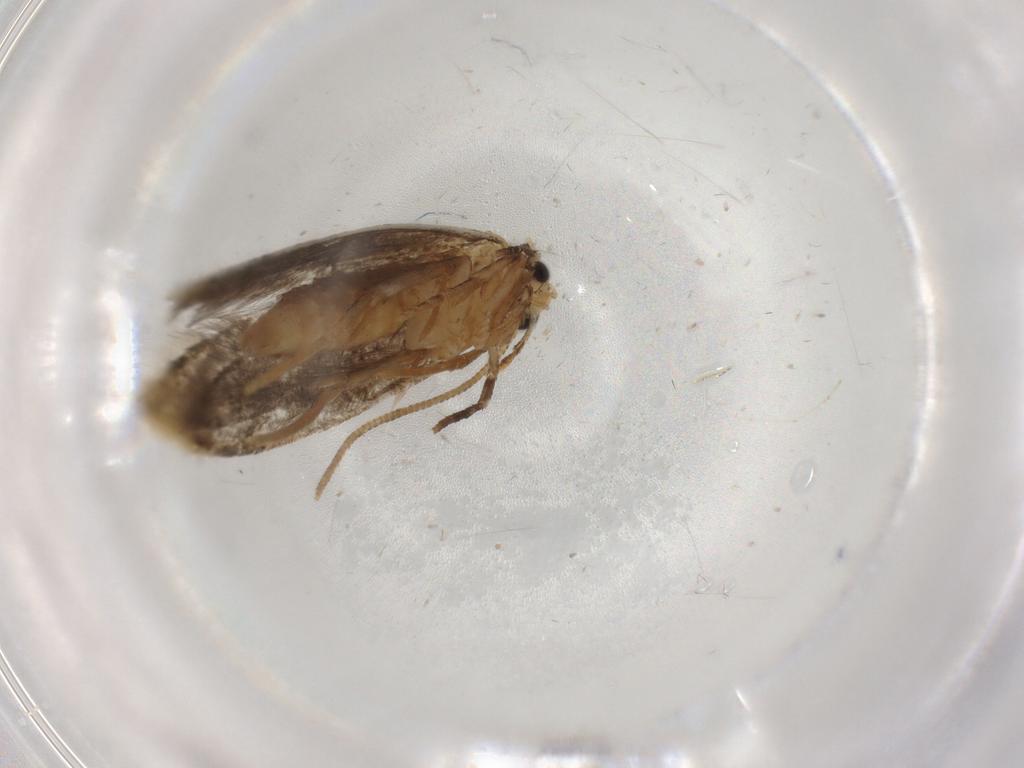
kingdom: Animalia
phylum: Arthropoda
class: Insecta
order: Lepidoptera
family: Tineidae
